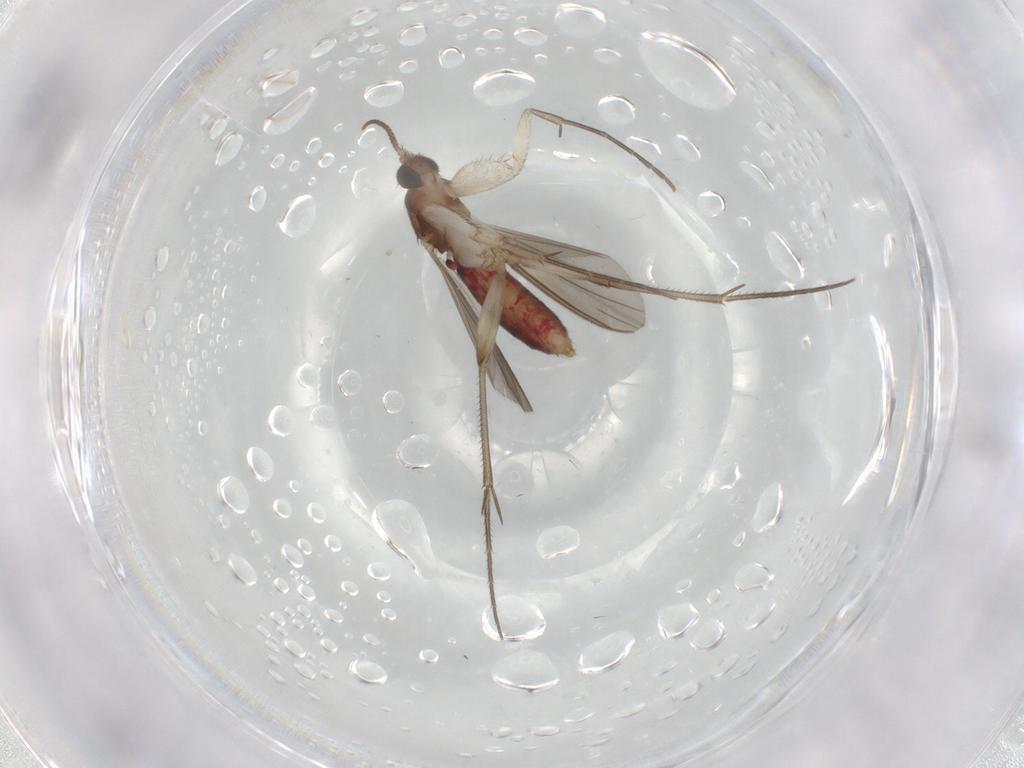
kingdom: Animalia
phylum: Arthropoda
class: Insecta
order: Diptera
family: Mycetophilidae
